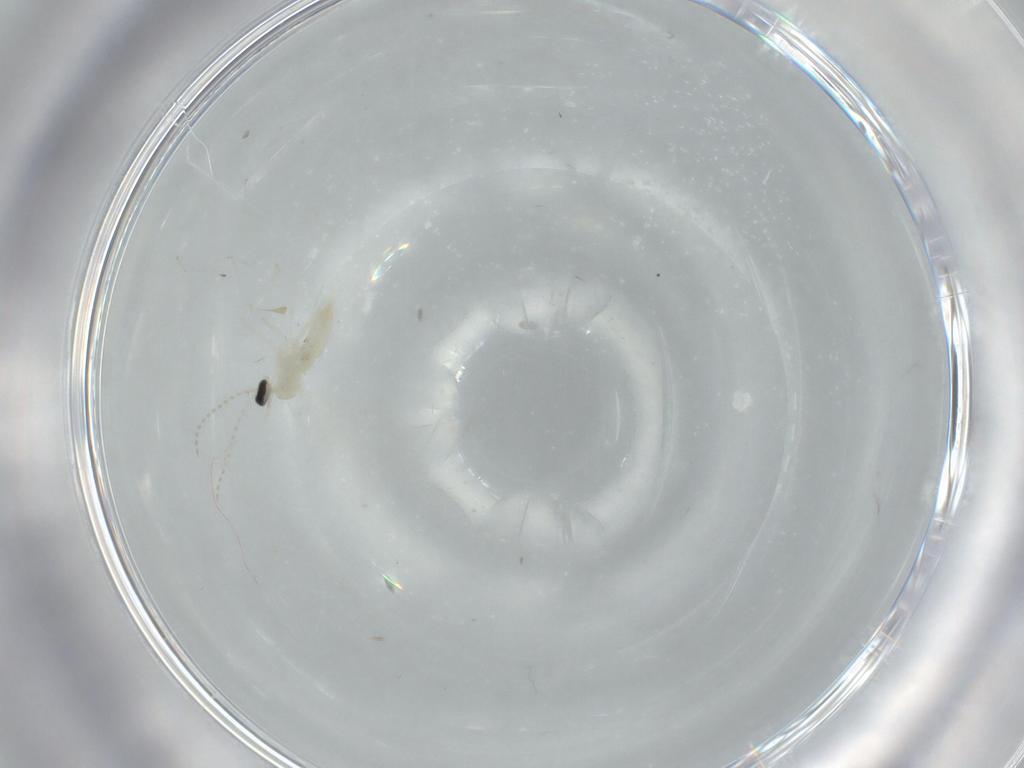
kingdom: Animalia
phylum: Arthropoda
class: Insecta
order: Diptera
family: Cecidomyiidae
